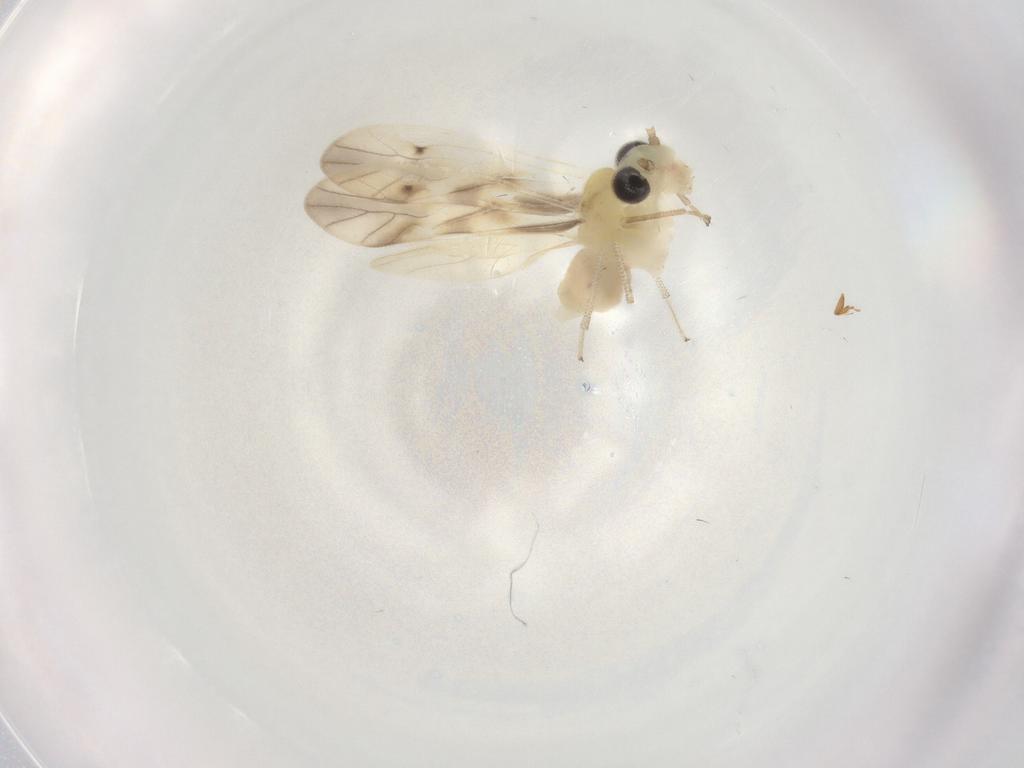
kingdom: Animalia
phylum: Arthropoda
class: Insecta
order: Psocodea
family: Caeciliusidae
